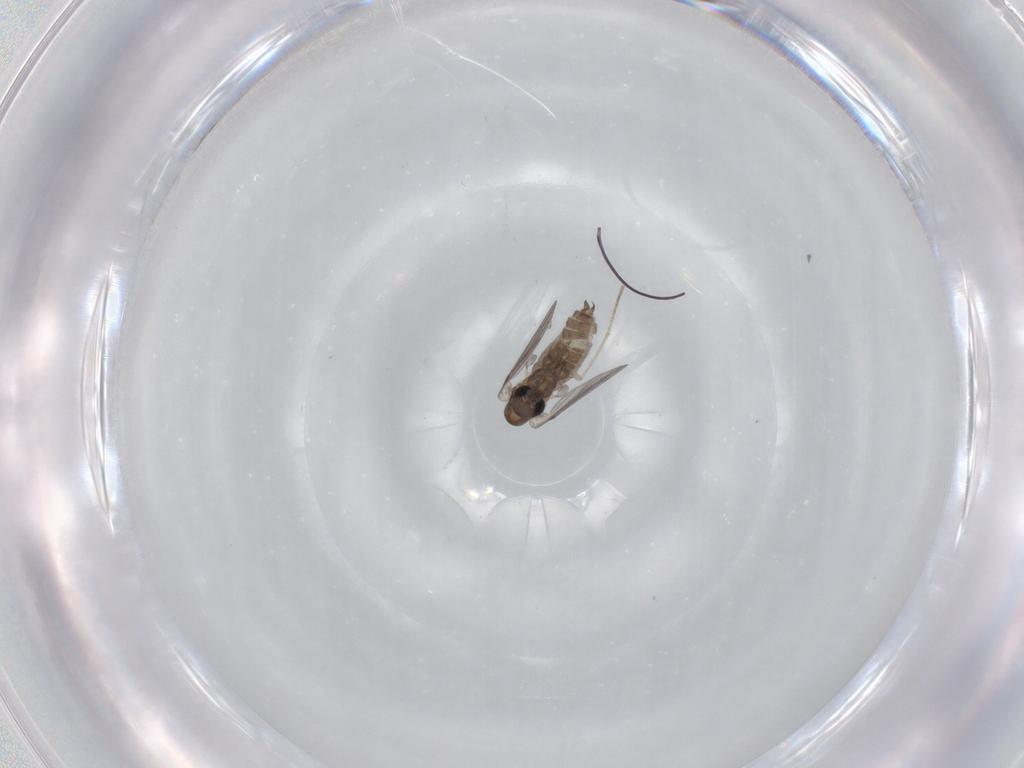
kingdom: Animalia
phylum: Arthropoda
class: Insecta
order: Diptera
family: Psychodidae
